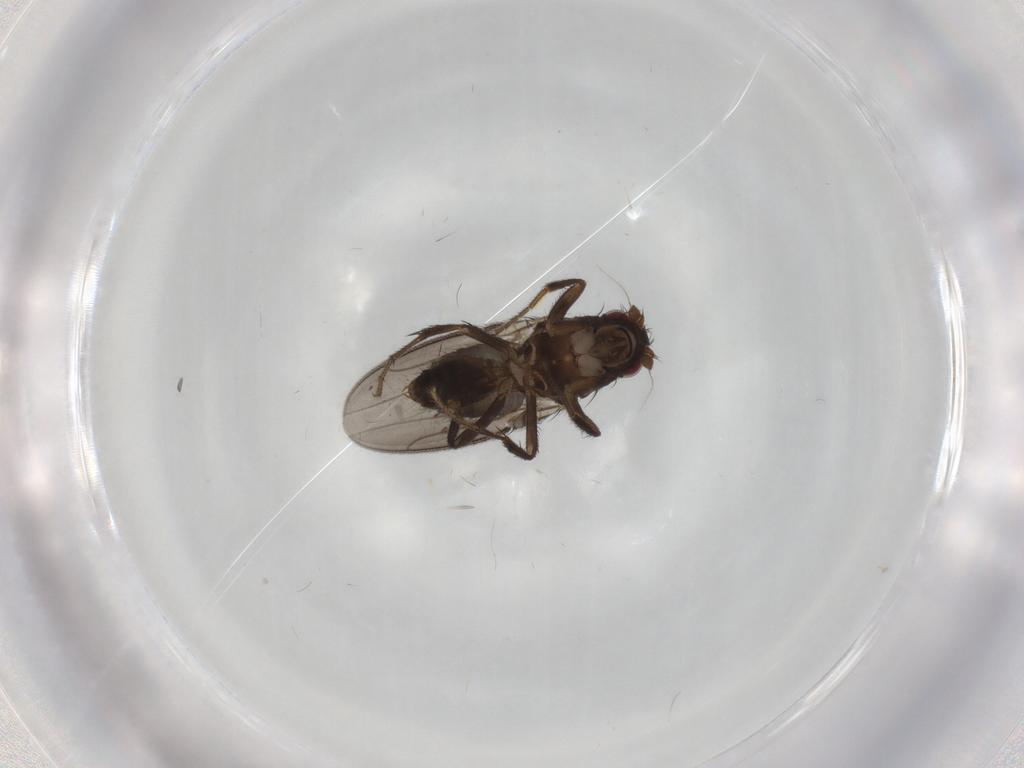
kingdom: Animalia
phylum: Arthropoda
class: Insecta
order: Diptera
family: Sphaeroceridae
